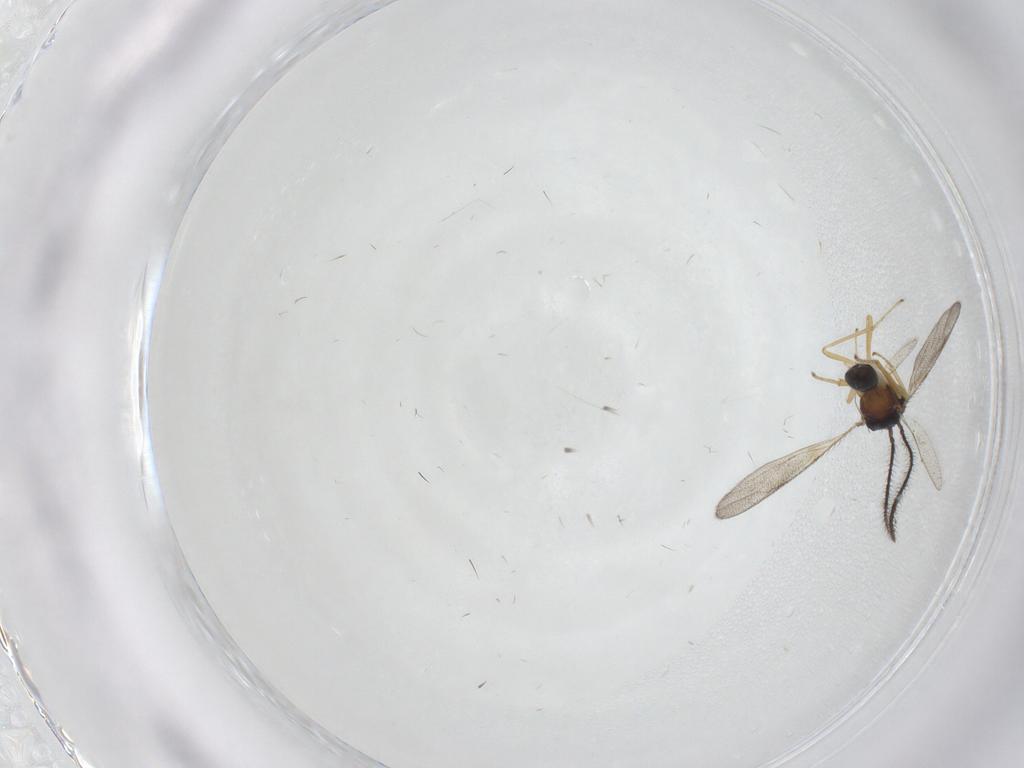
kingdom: Animalia
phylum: Arthropoda
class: Insecta
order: Hymenoptera
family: Diparidae
